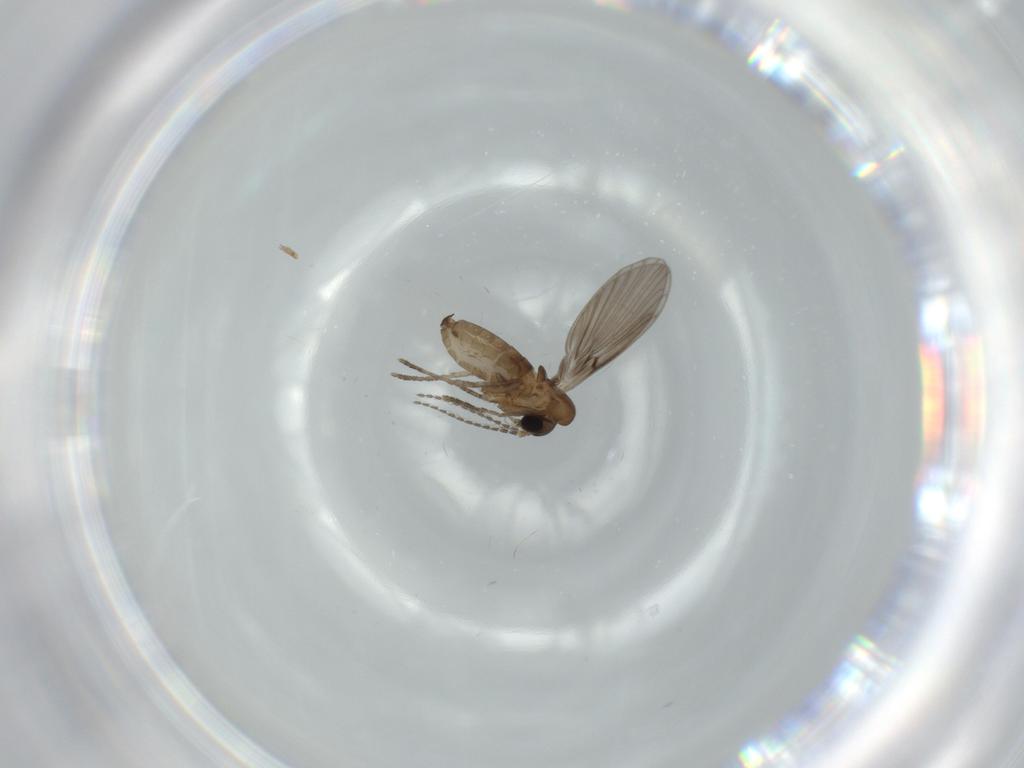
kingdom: Animalia
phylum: Arthropoda
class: Insecta
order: Diptera
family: Psychodidae
